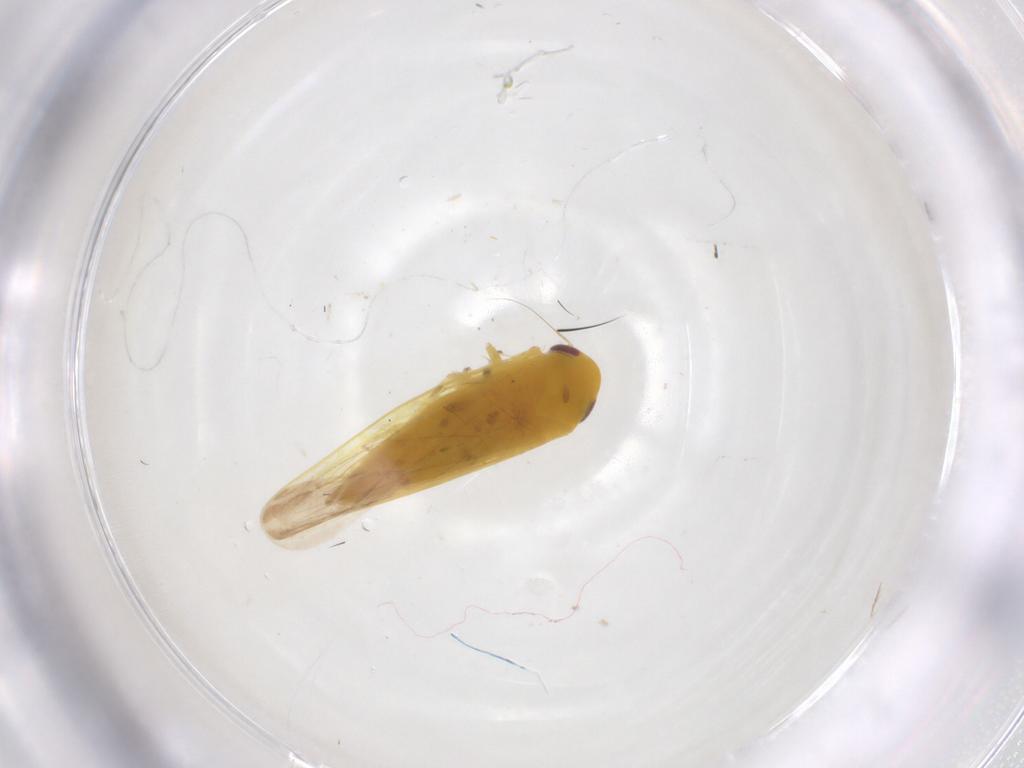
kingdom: Animalia
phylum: Arthropoda
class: Insecta
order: Hemiptera
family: Cicadellidae
